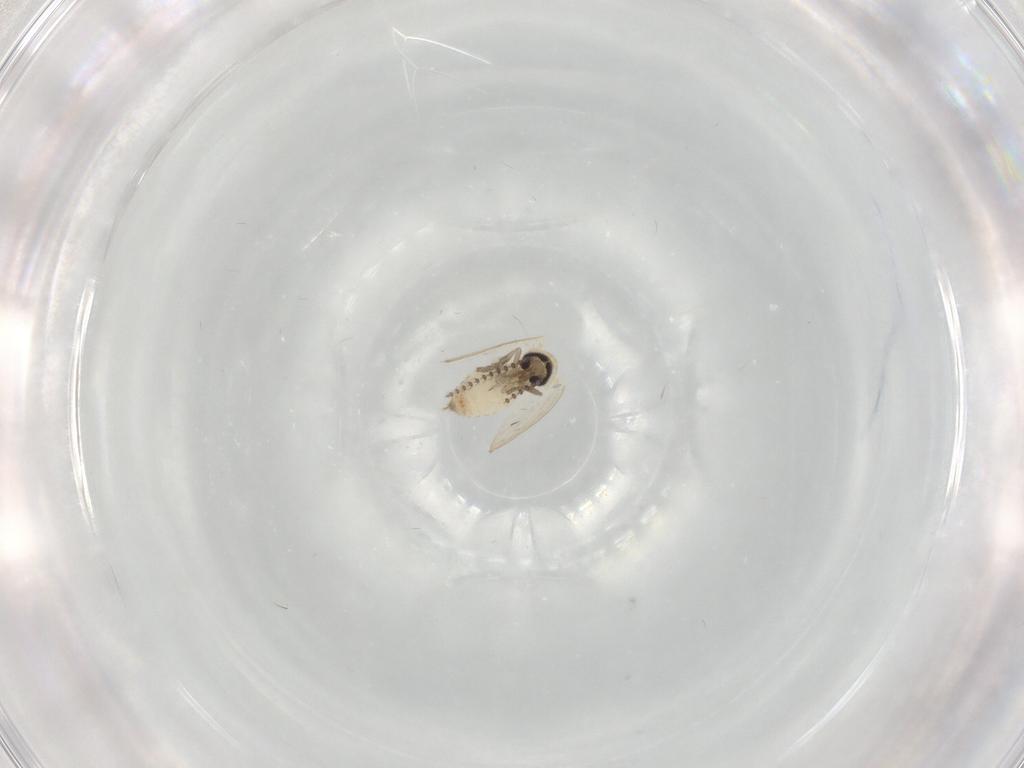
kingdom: Animalia
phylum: Arthropoda
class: Insecta
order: Diptera
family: Psychodidae
